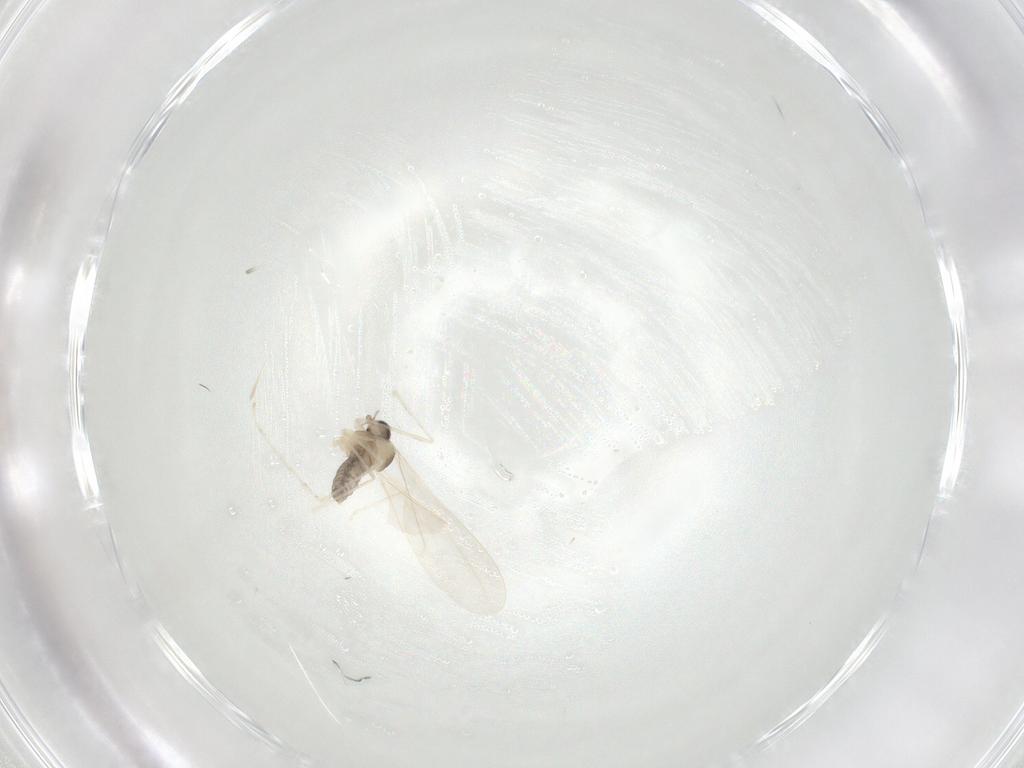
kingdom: Animalia
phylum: Arthropoda
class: Insecta
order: Diptera
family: Cecidomyiidae
